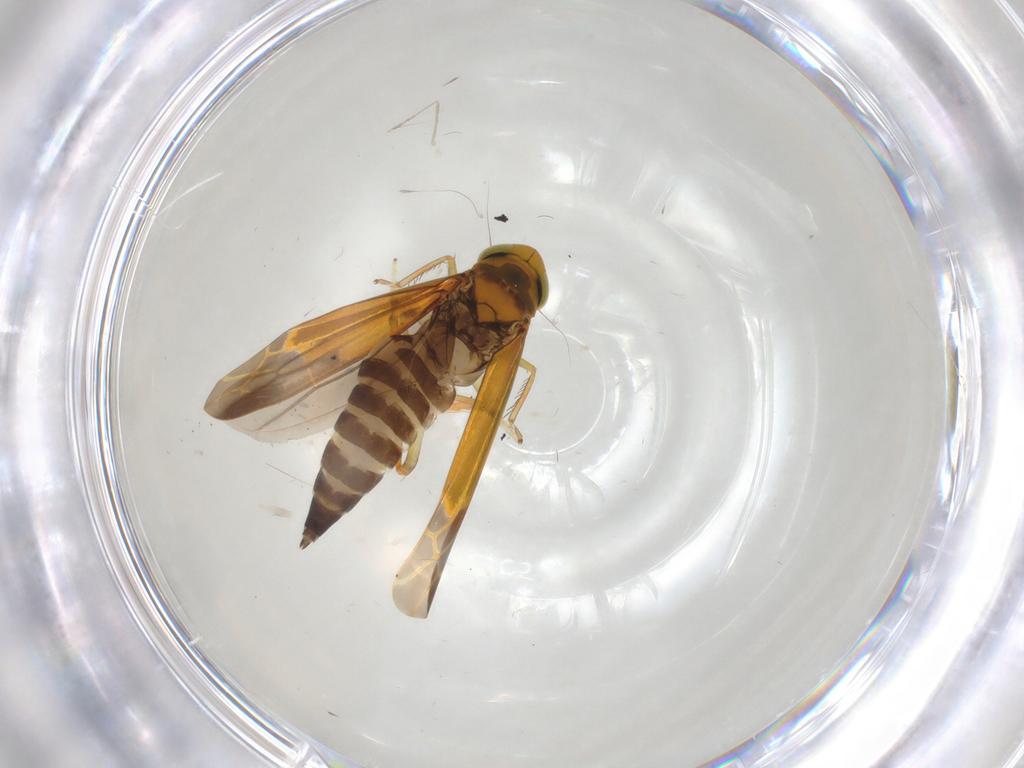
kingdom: Animalia
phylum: Arthropoda
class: Insecta
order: Hemiptera
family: Cicadellidae
